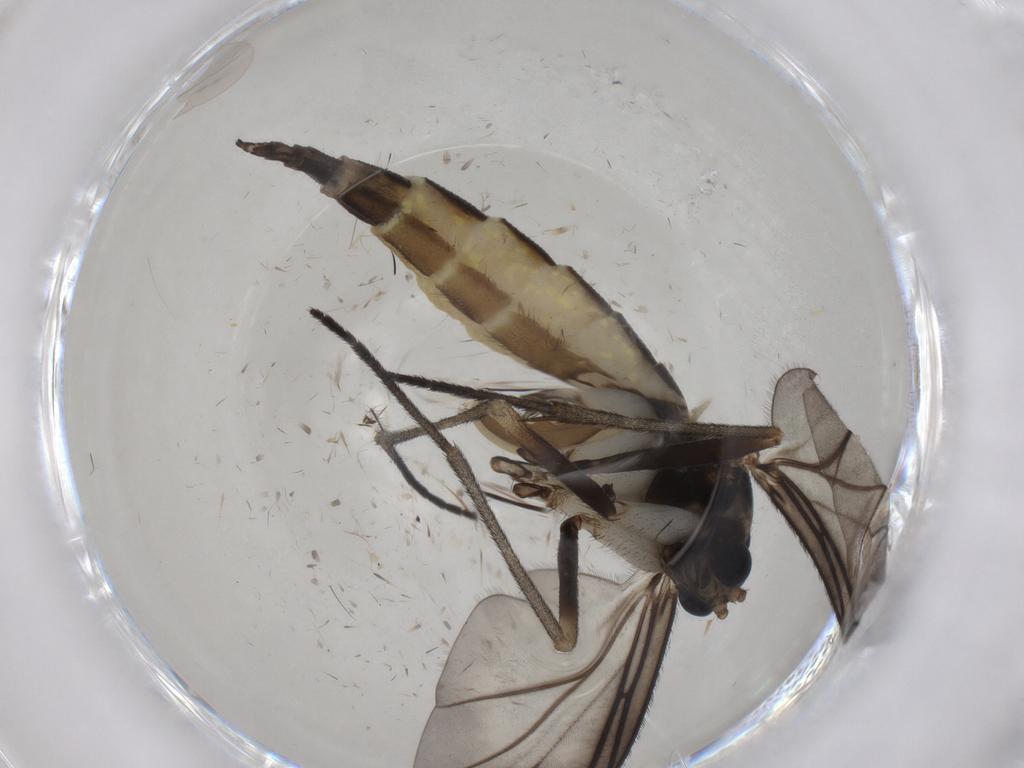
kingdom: Animalia
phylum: Arthropoda
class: Insecta
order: Diptera
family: Sciaridae
